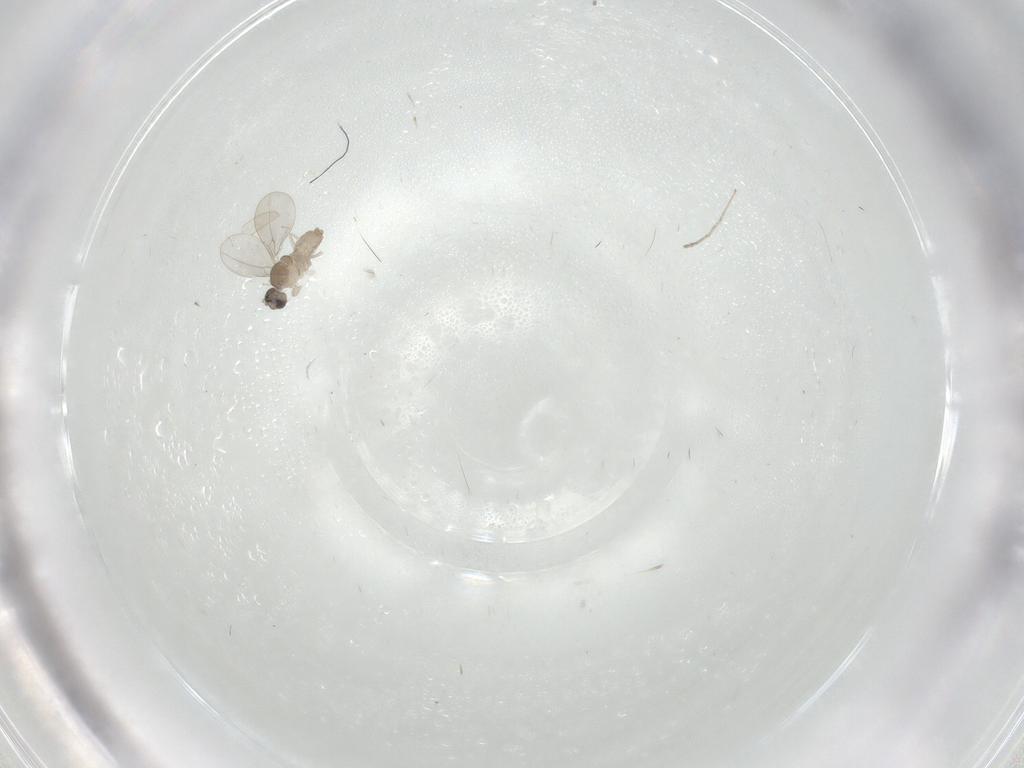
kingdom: Animalia
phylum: Arthropoda
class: Insecta
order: Diptera
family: Cecidomyiidae
